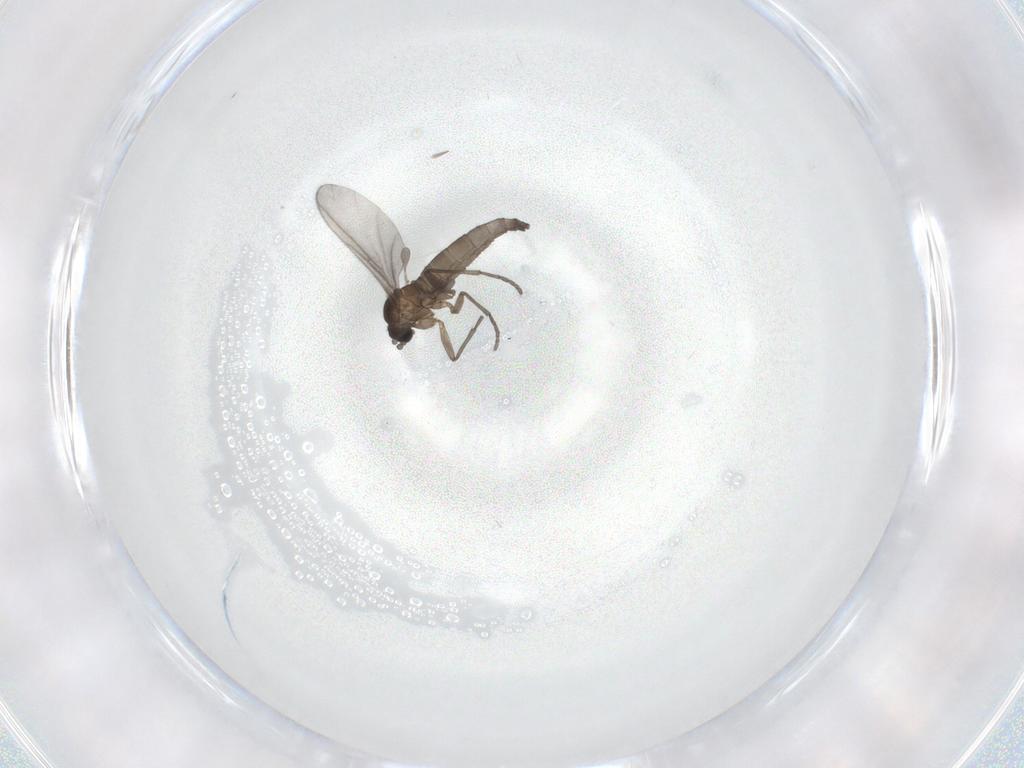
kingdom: Animalia
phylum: Arthropoda
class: Insecta
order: Diptera
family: Sciaridae
